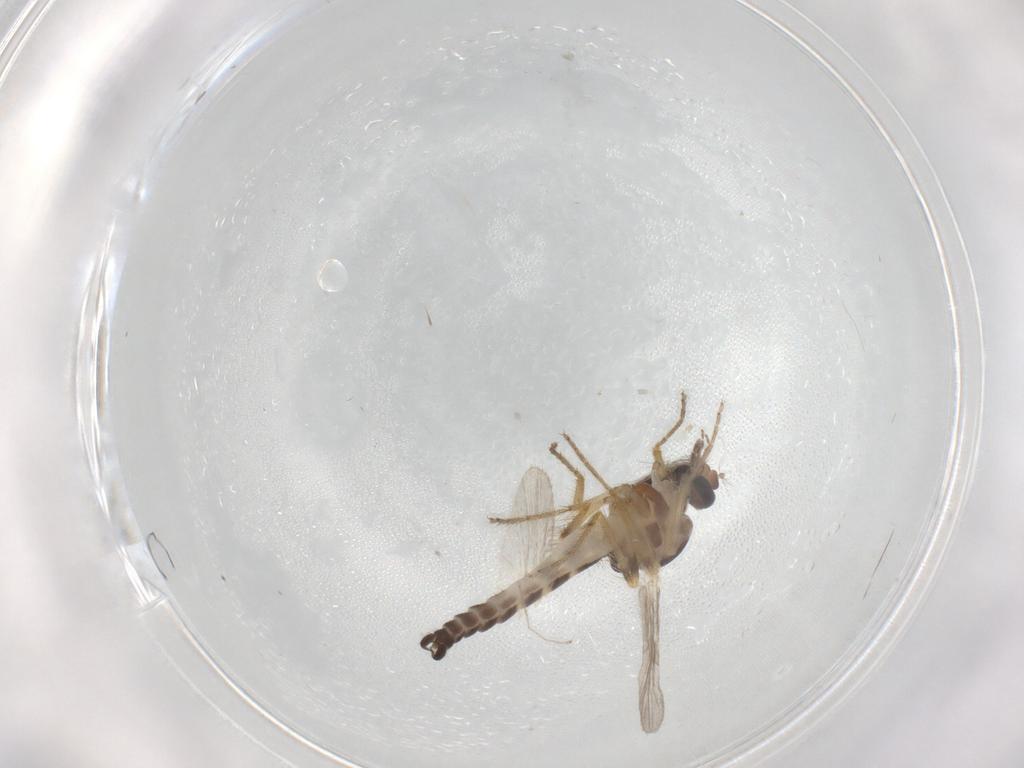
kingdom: Animalia
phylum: Arthropoda
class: Insecta
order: Diptera
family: Ceratopogonidae
